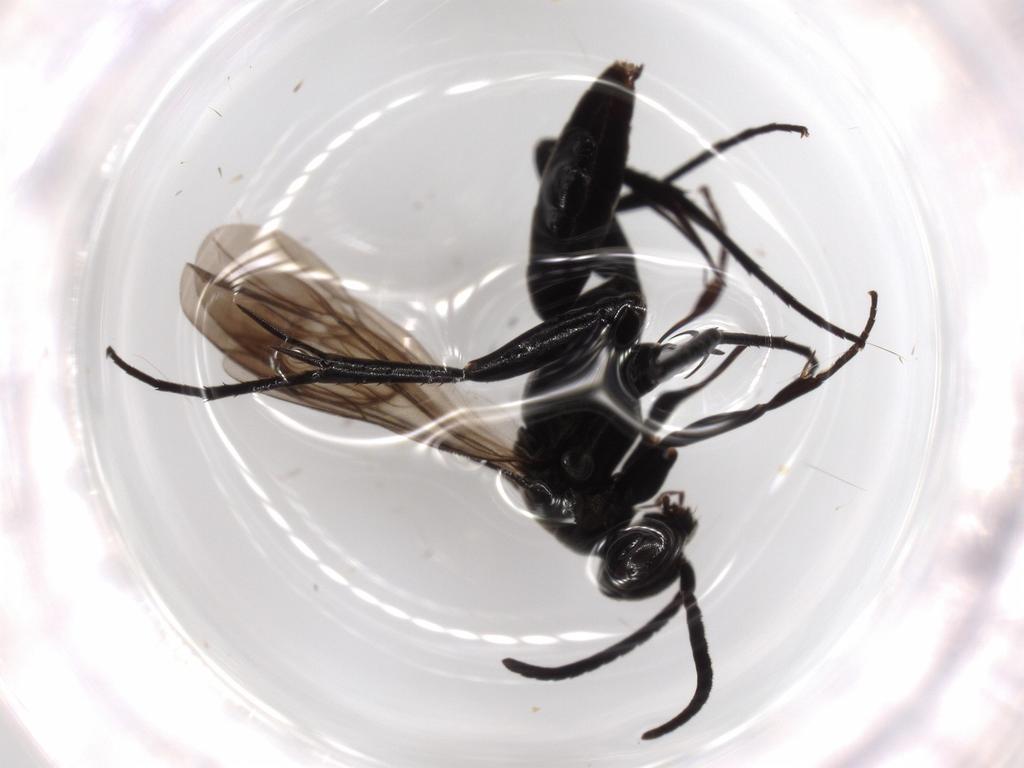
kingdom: Animalia
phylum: Arthropoda
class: Insecta
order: Hymenoptera
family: Pompilidae
